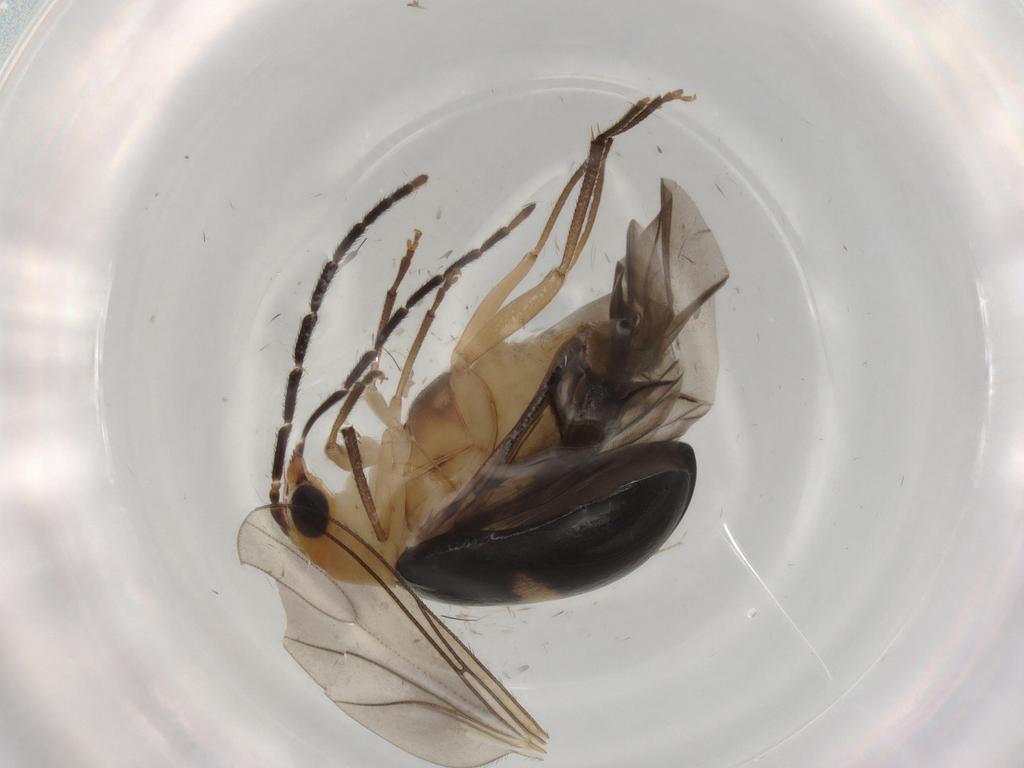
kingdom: Animalia
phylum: Arthropoda
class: Insecta
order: Coleoptera
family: Chrysomelidae
